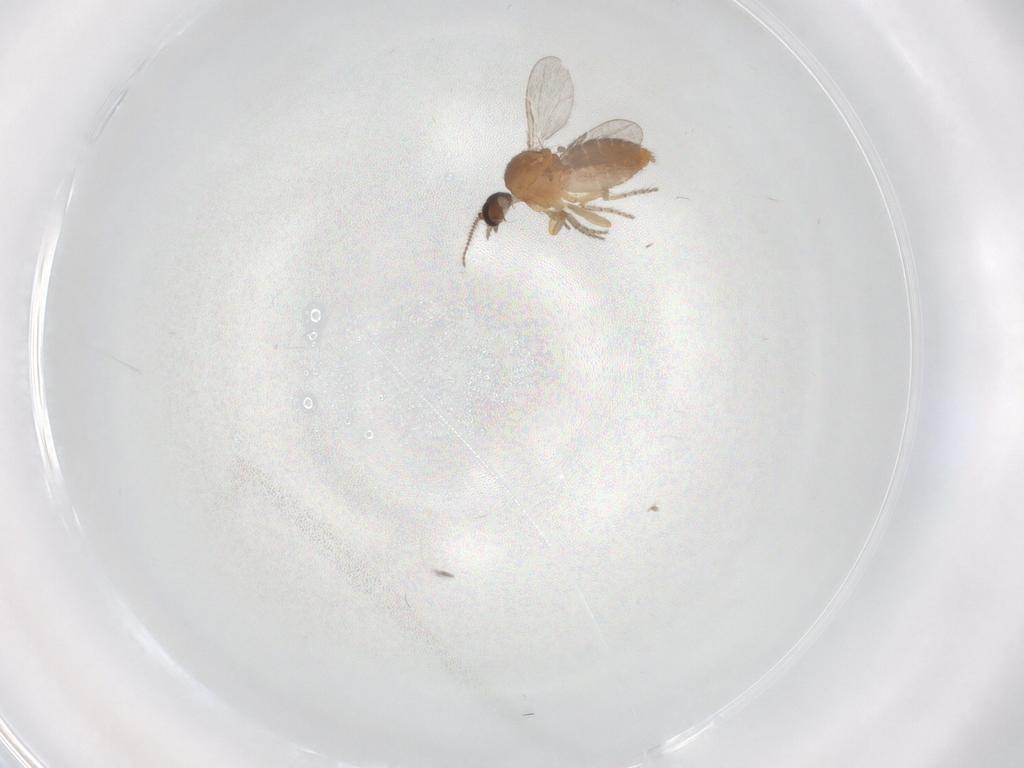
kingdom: Animalia
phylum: Arthropoda
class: Insecta
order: Diptera
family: Ceratopogonidae
